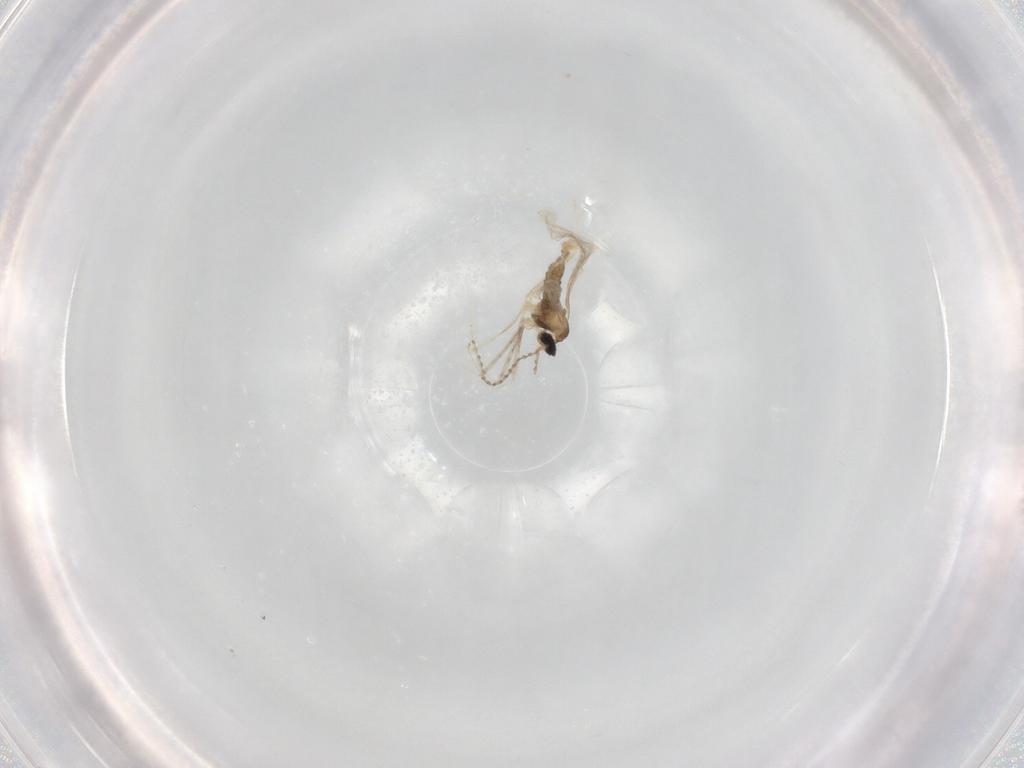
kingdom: Animalia
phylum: Arthropoda
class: Insecta
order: Diptera
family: Cecidomyiidae
